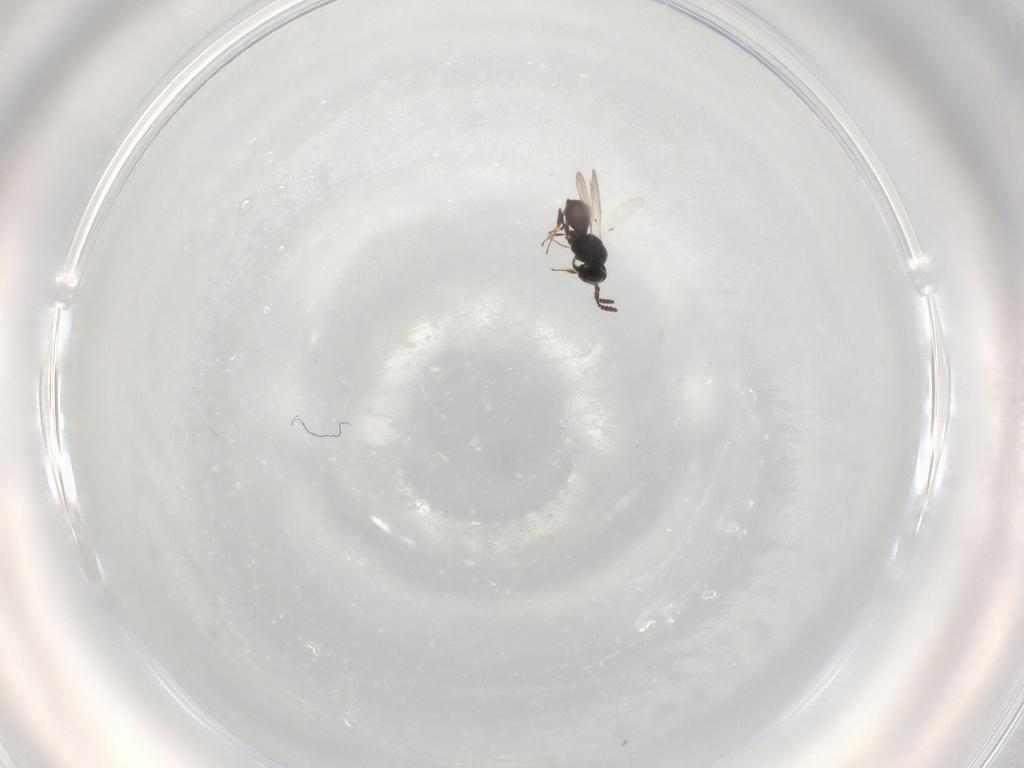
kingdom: Animalia
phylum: Arthropoda
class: Insecta
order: Hymenoptera
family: Scelionidae
